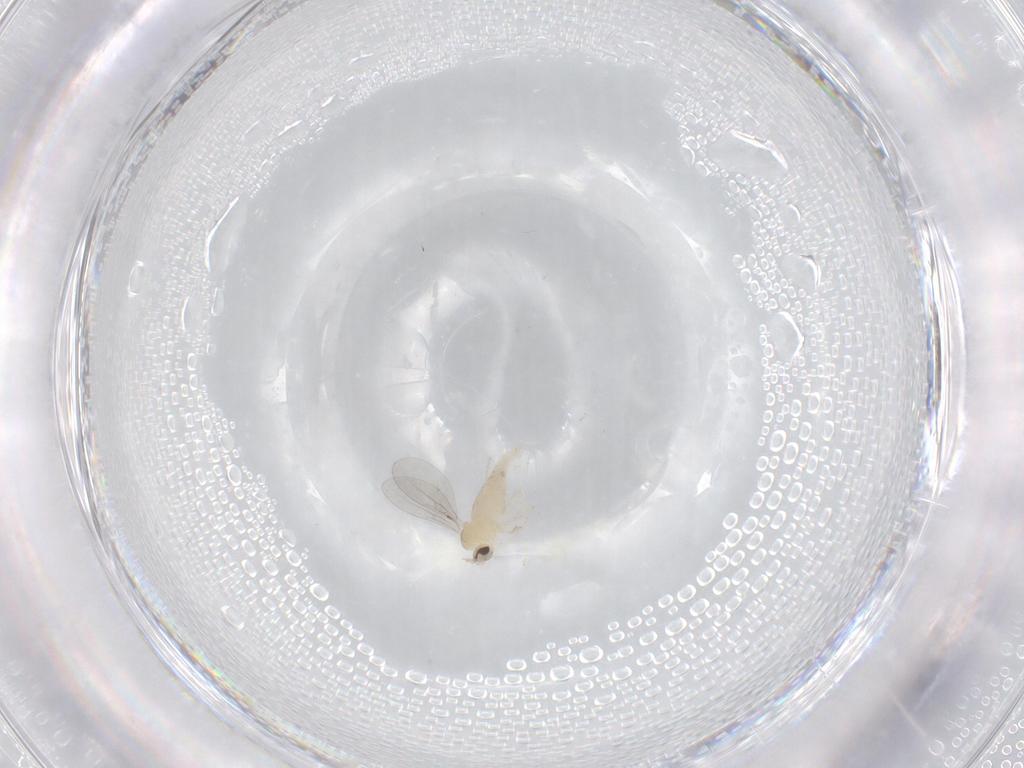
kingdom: Animalia
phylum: Arthropoda
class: Insecta
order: Diptera
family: Cecidomyiidae
